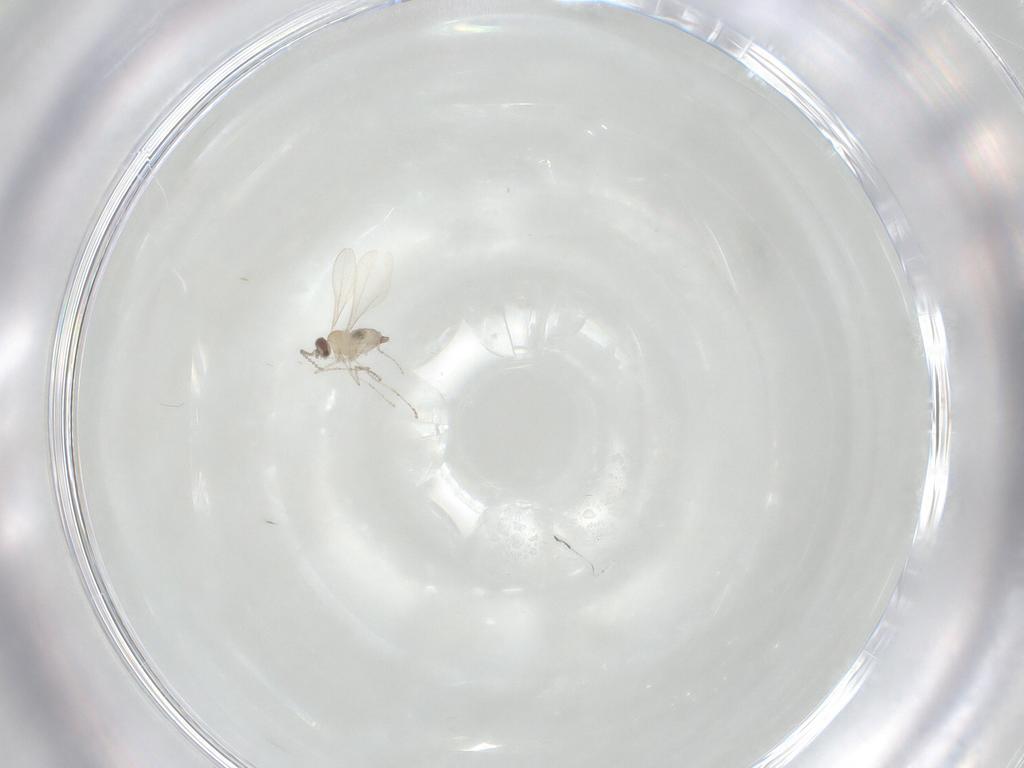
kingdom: Animalia
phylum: Arthropoda
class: Insecta
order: Diptera
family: Cecidomyiidae
